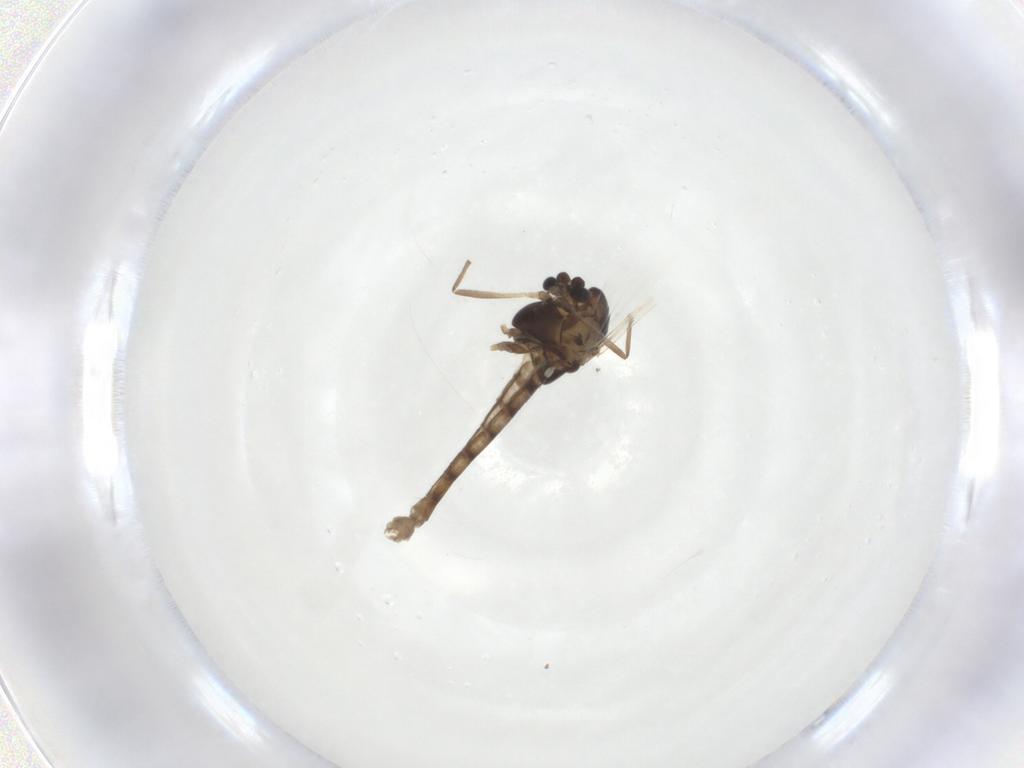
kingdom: Animalia
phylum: Arthropoda
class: Insecta
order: Diptera
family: Chironomidae
